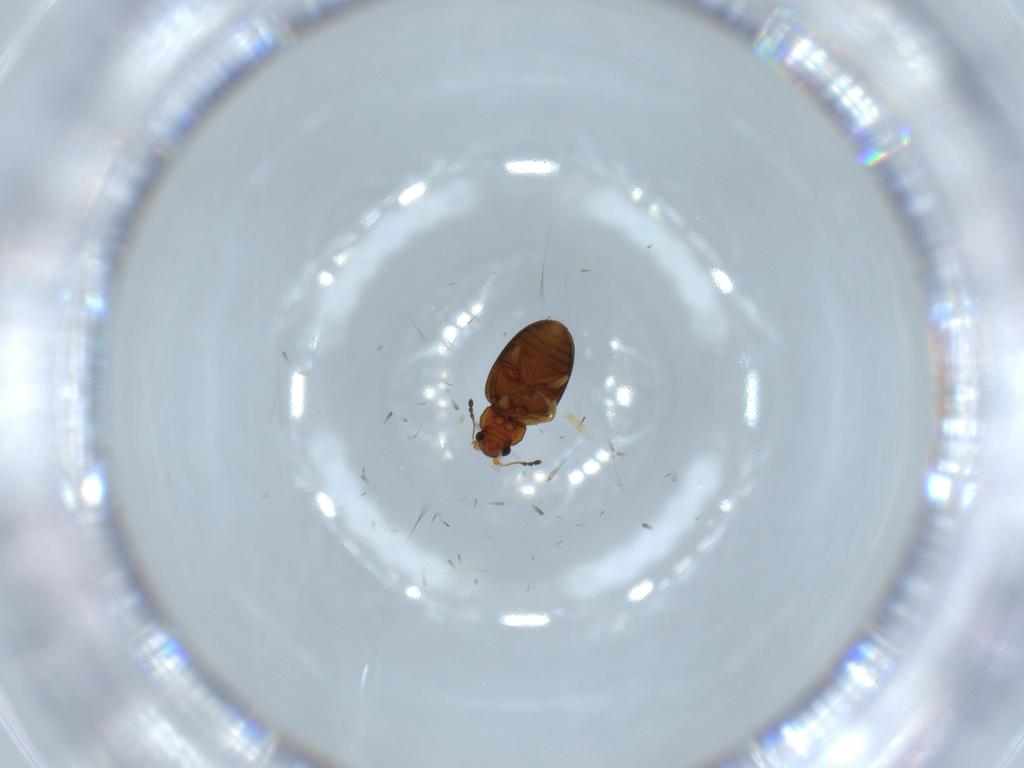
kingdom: Animalia
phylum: Arthropoda
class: Insecta
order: Coleoptera
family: Latridiidae
